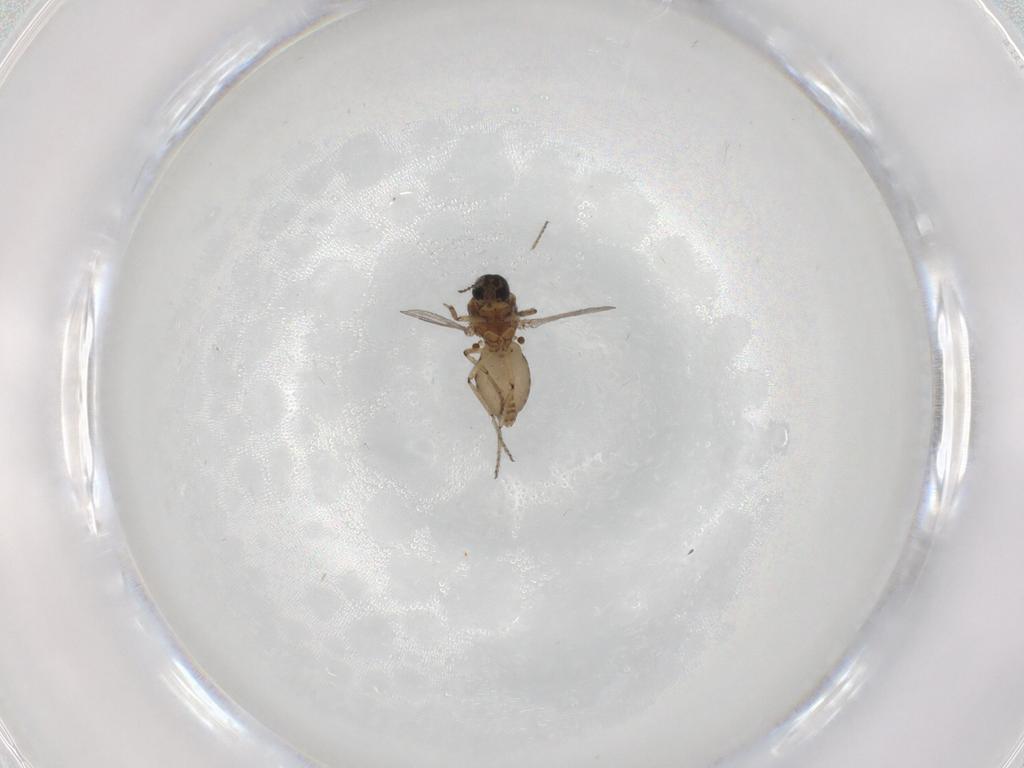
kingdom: Animalia
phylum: Arthropoda
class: Insecta
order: Diptera
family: Ceratopogonidae
